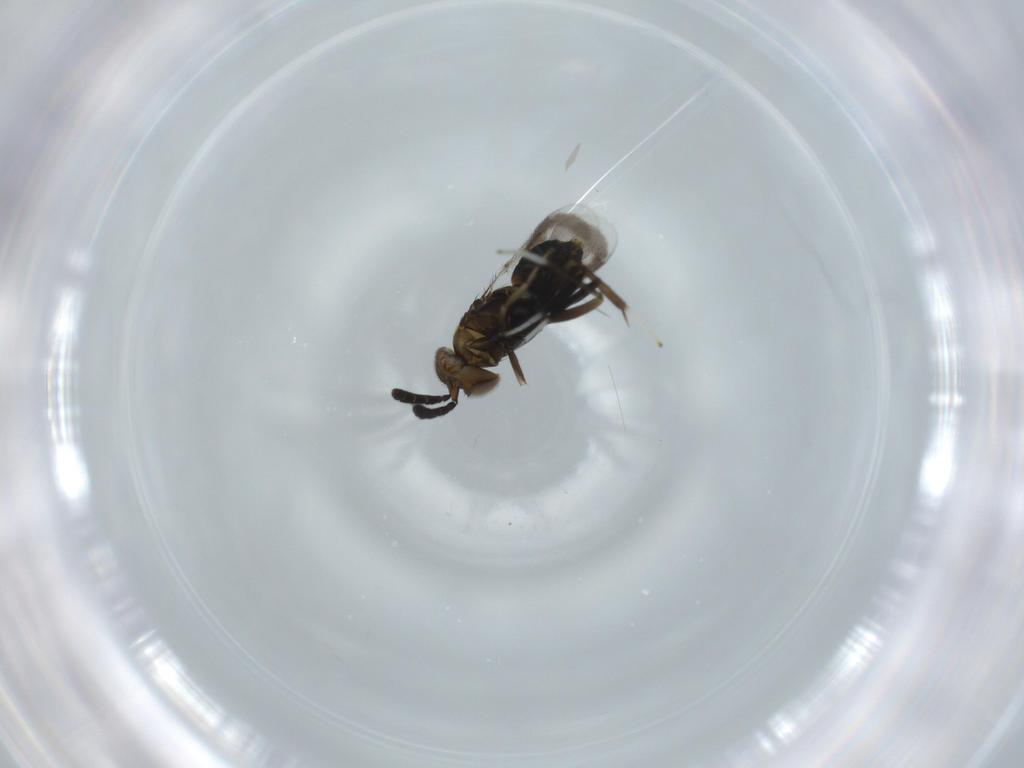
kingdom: Animalia
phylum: Arthropoda
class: Insecta
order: Hymenoptera
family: Aphelinidae
